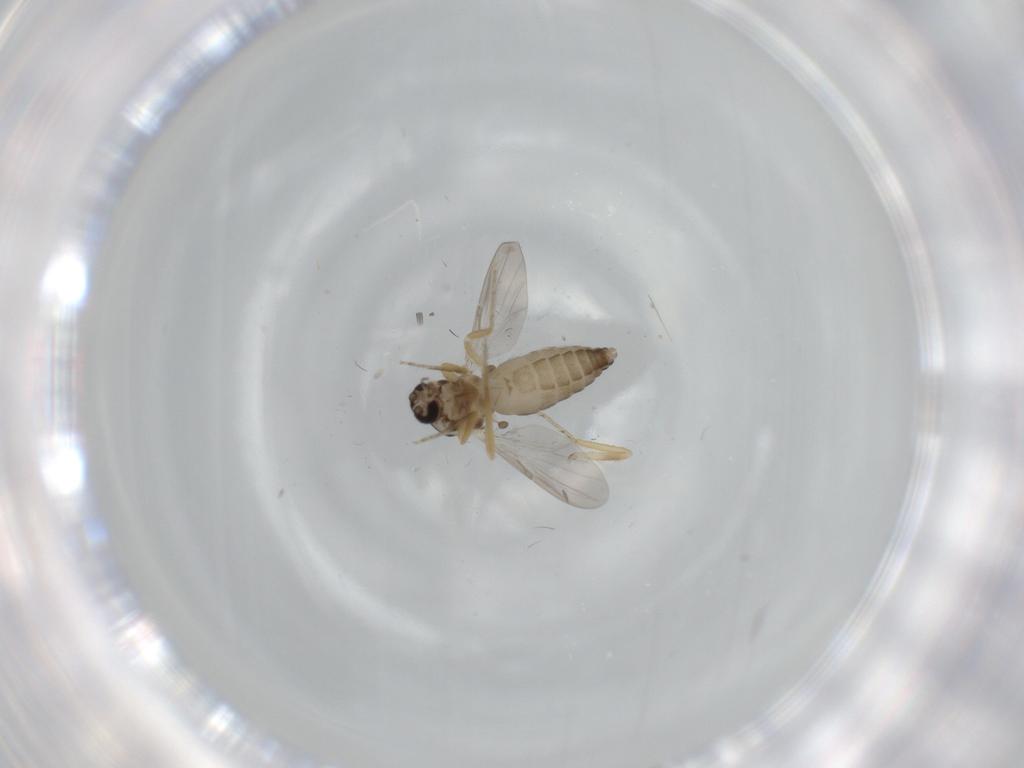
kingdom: Animalia
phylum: Arthropoda
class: Insecta
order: Diptera
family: Ceratopogonidae
